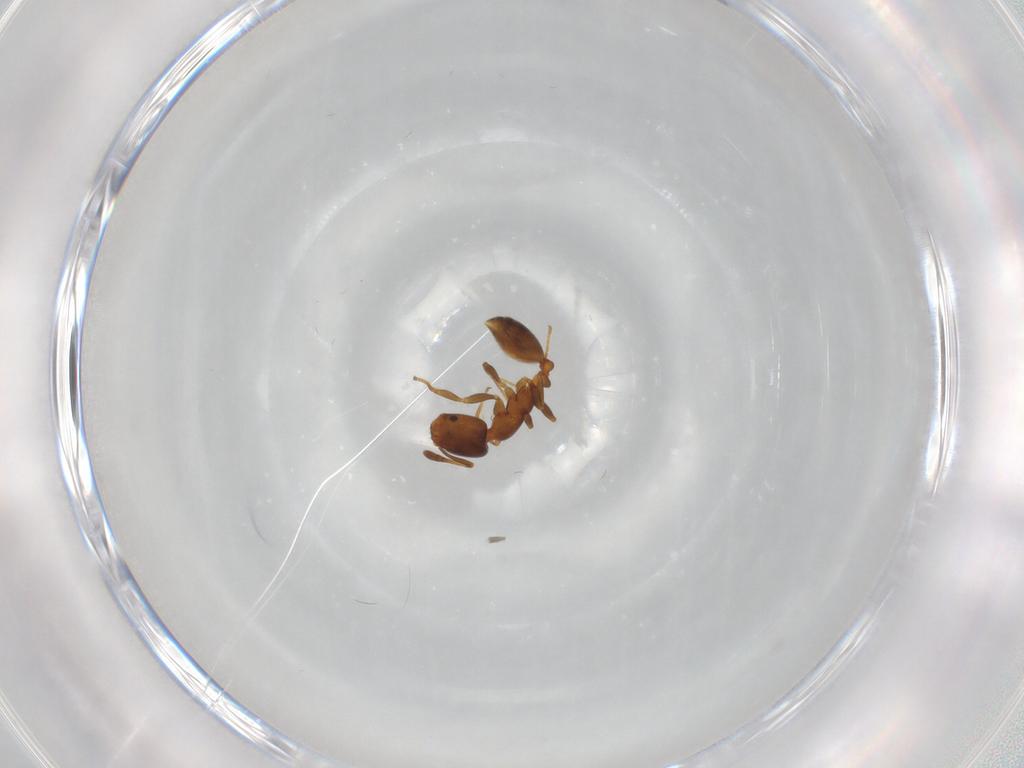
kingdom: Animalia
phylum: Arthropoda
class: Insecta
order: Hymenoptera
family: Formicidae
